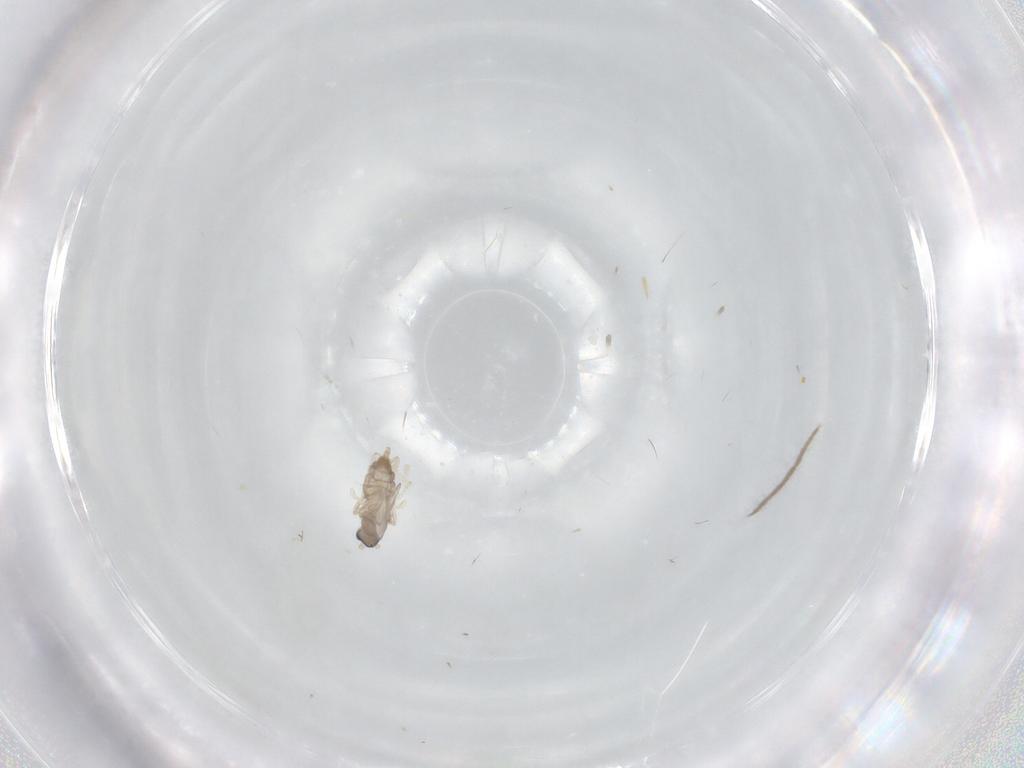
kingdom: Animalia
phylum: Arthropoda
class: Insecta
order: Diptera
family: Cecidomyiidae
